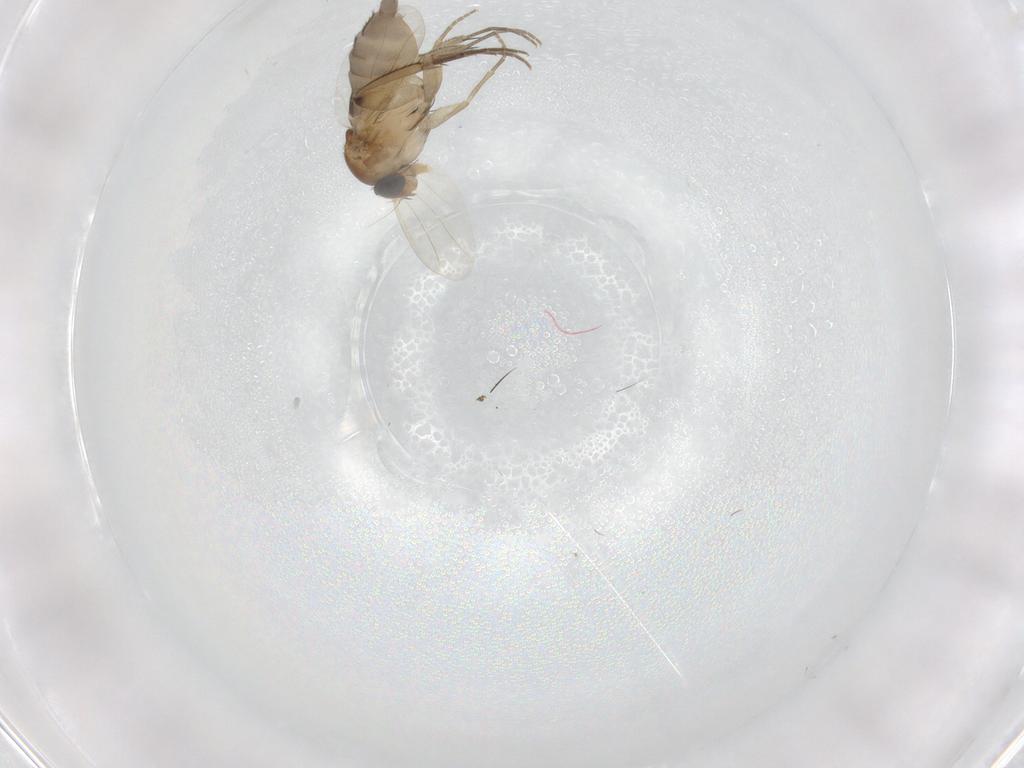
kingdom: Animalia
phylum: Arthropoda
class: Insecta
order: Diptera
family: Phoridae
